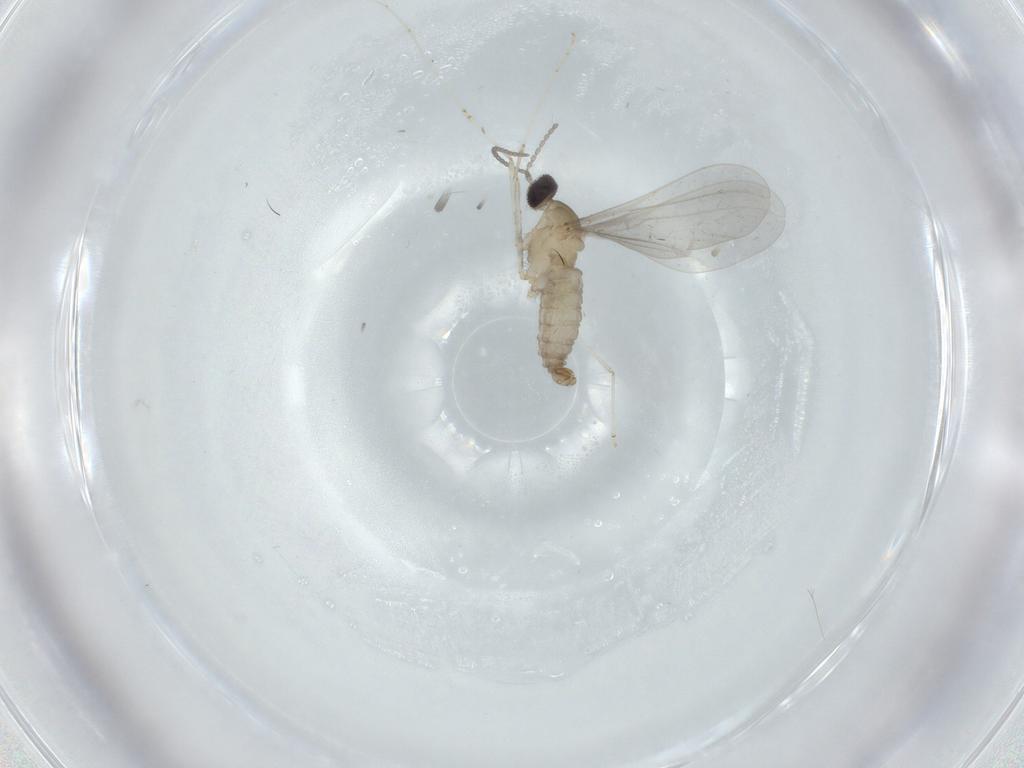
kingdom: Animalia
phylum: Arthropoda
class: Insecta
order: Diptera
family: Cecidomyiidae
